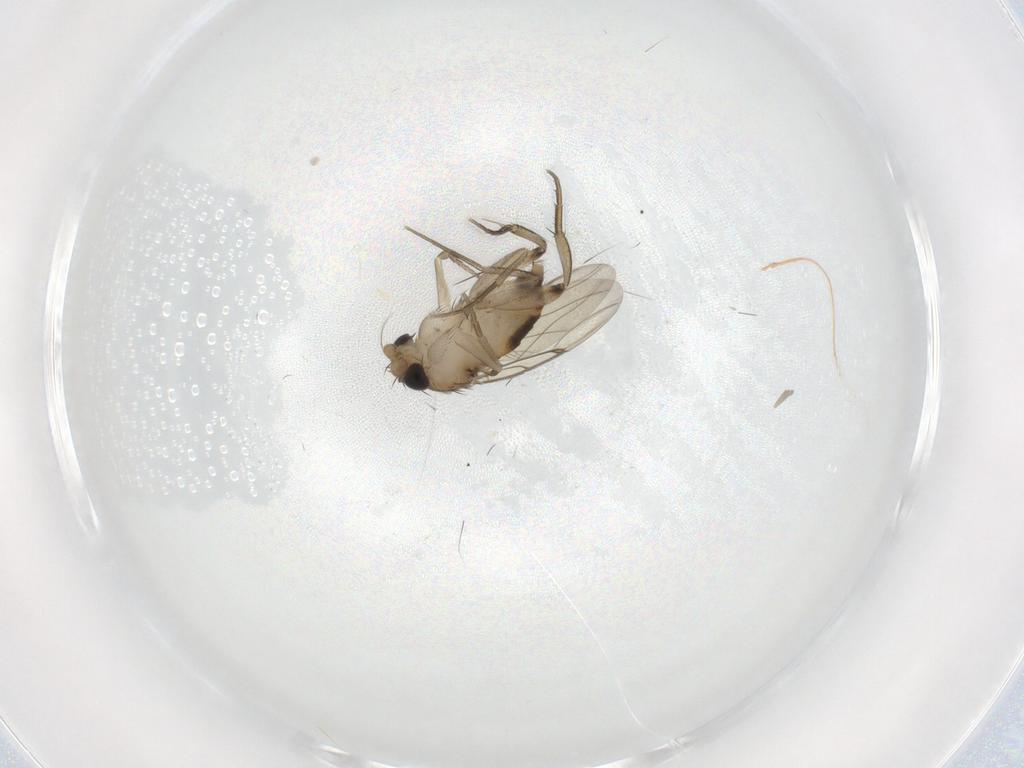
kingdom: Animalia
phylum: Arthropoda
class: Insecta
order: Diptera
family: Phoridae
